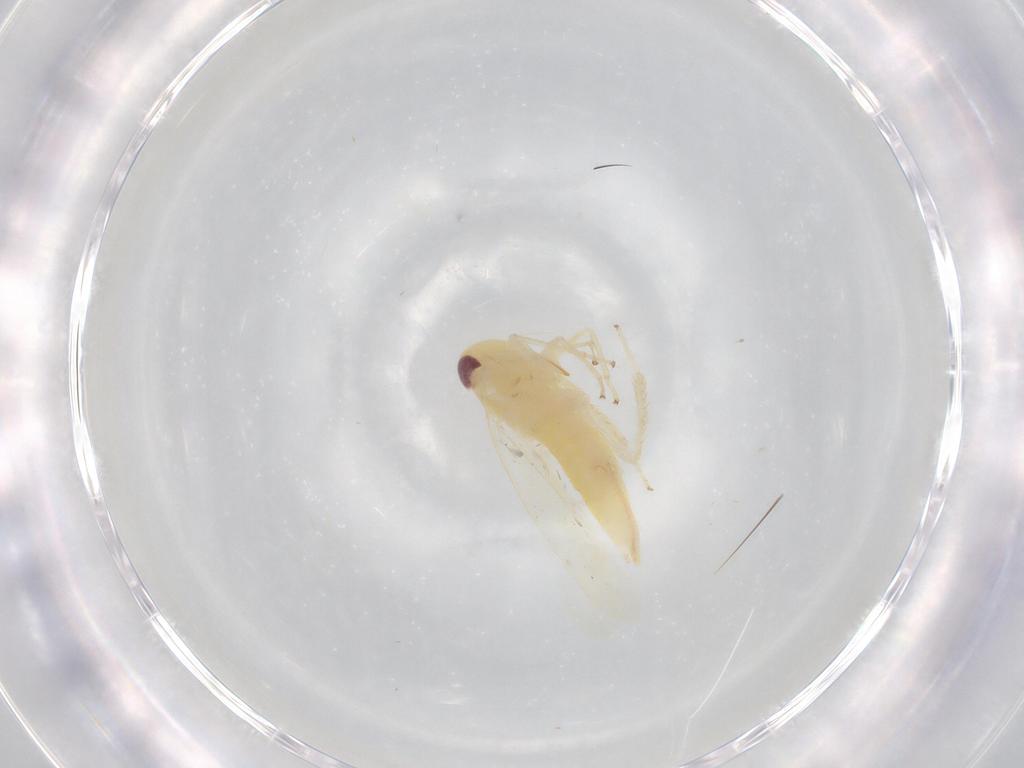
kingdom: Animalia
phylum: Arthropoda
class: Insecta
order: Hemiptera
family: Cicadellidae
